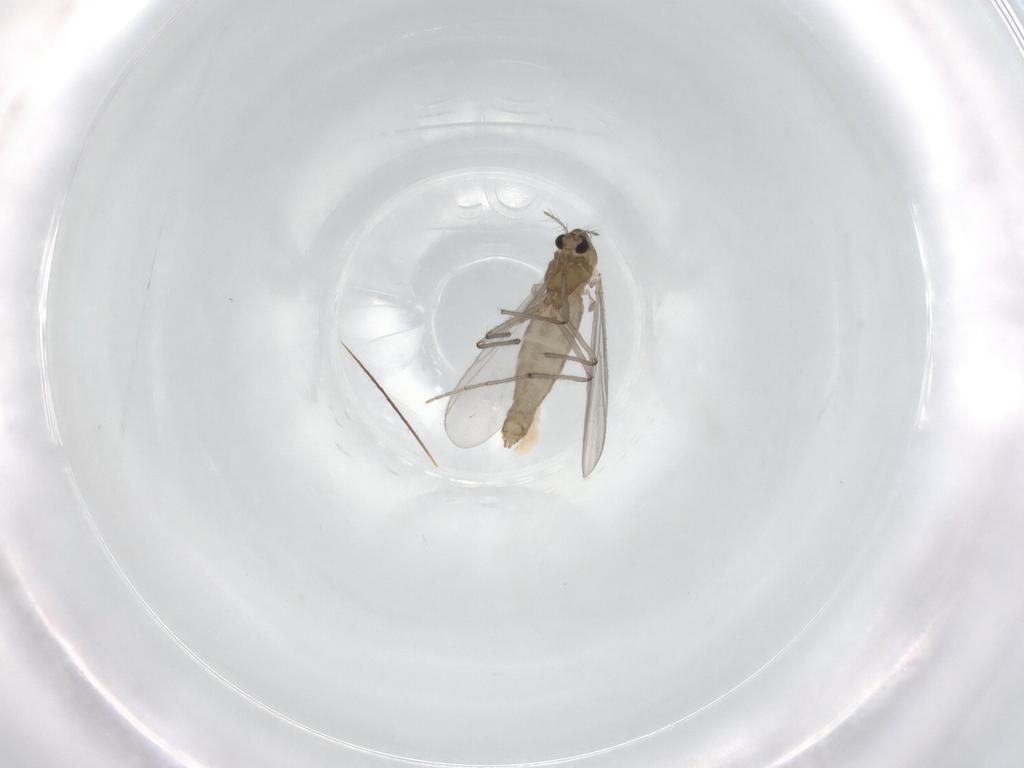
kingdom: Animalia
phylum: Arthropoda
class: Insecta
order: Diptera
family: Chironomidae
